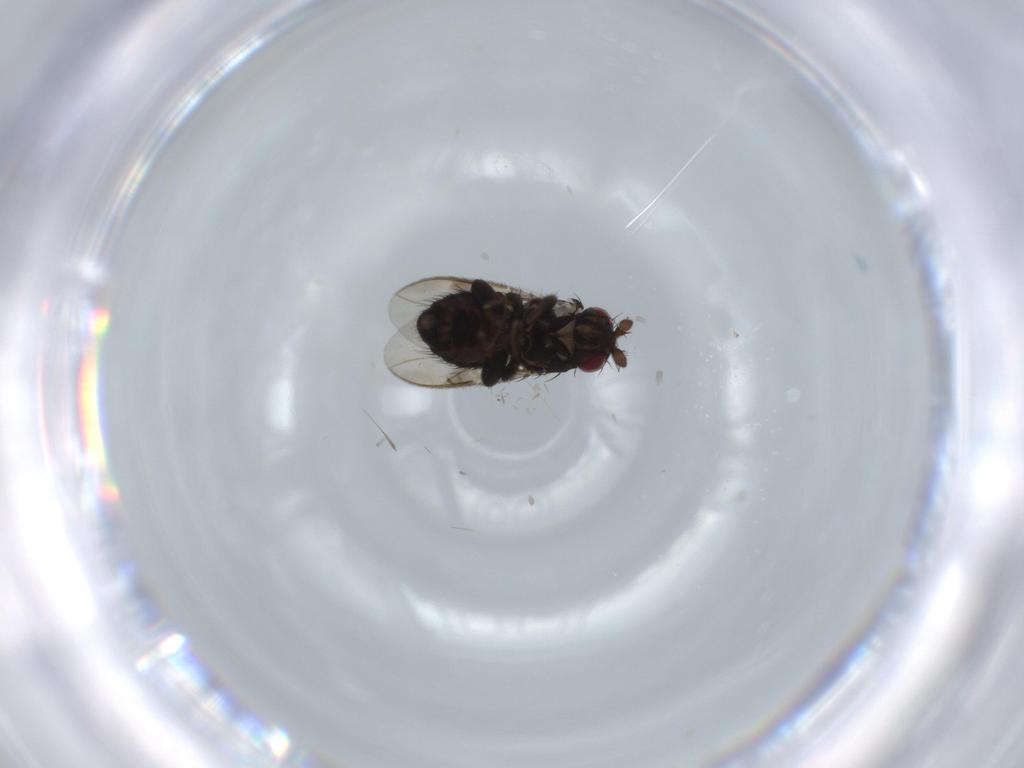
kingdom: Animalia
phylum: Arthropoda
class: Insecta
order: Diptera
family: Sphaeroceridae
